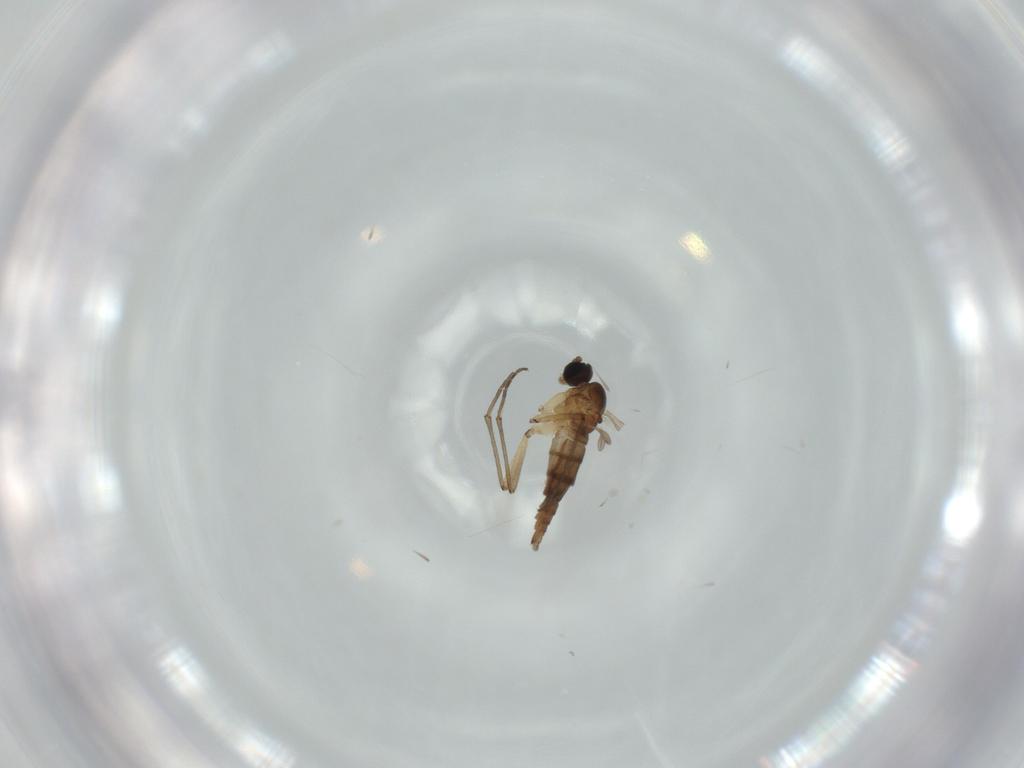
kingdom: Animalia
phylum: Arthropoda
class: Insecta
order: Diptera
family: Sciaridae
